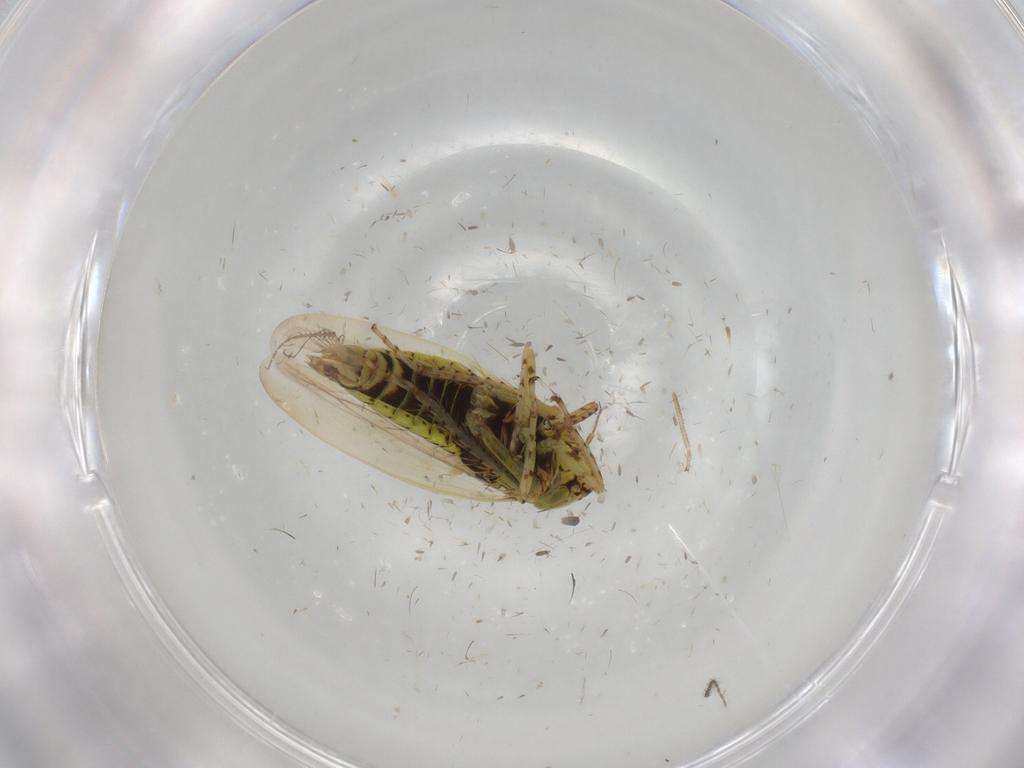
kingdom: Animalia
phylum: Arthropoda
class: Insecta
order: Hemiptera
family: Cicadellidae
